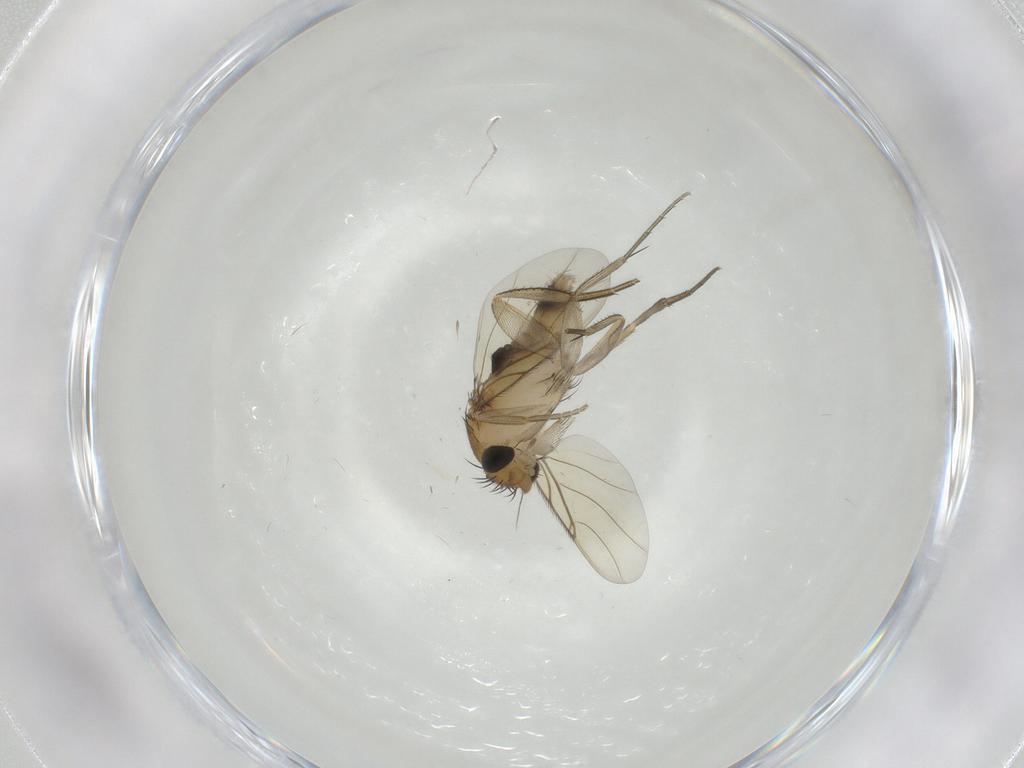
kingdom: Animalia
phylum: Arthropoda
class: Insecta
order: Diptera
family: Phoridae
